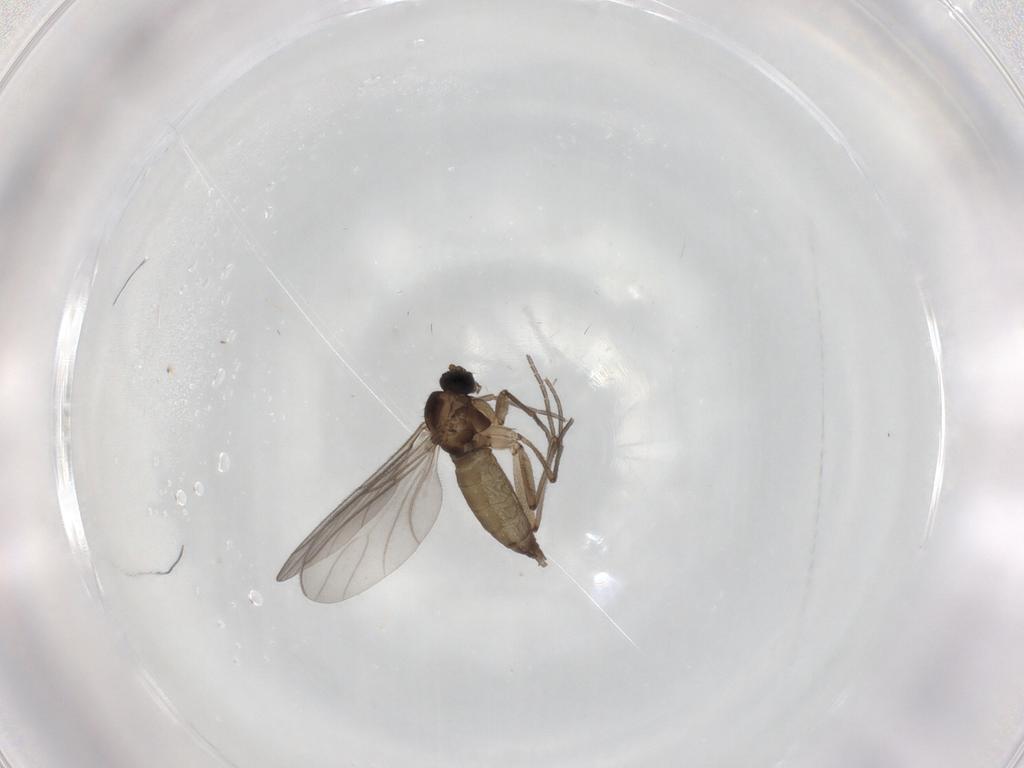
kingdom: Animalia
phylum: Arthropoda
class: Insecta
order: Diptera
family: Sciaridae
